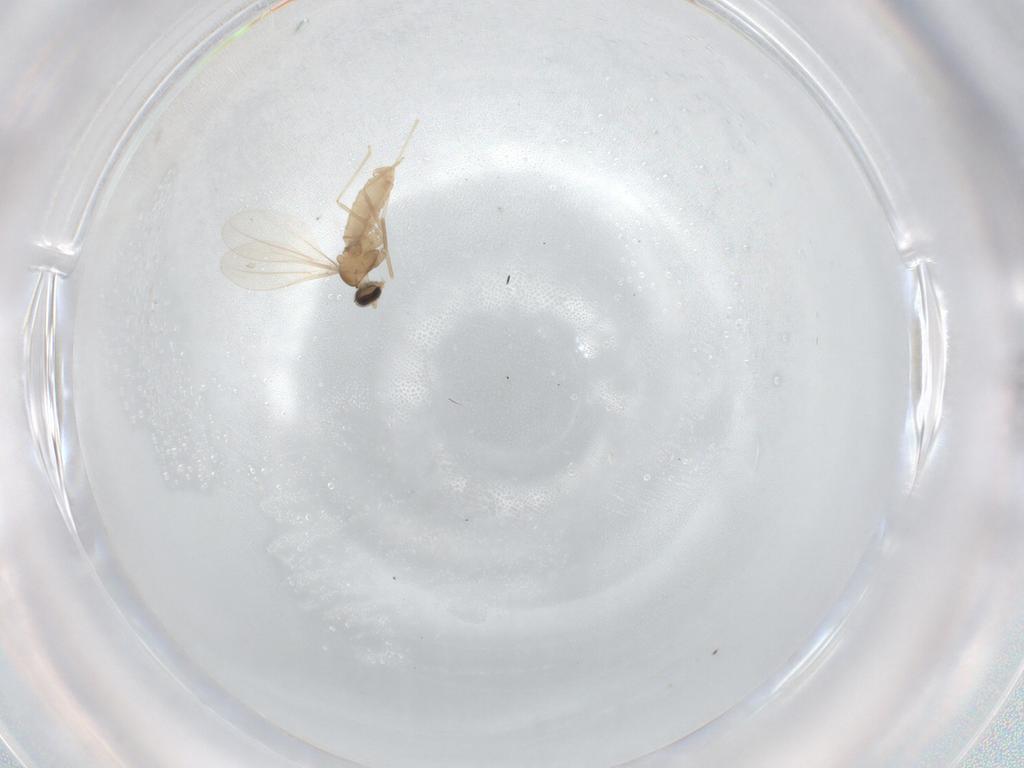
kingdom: Animalia
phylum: Arthropoda
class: Insecta
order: Diptera
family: Cecidomyiidae
